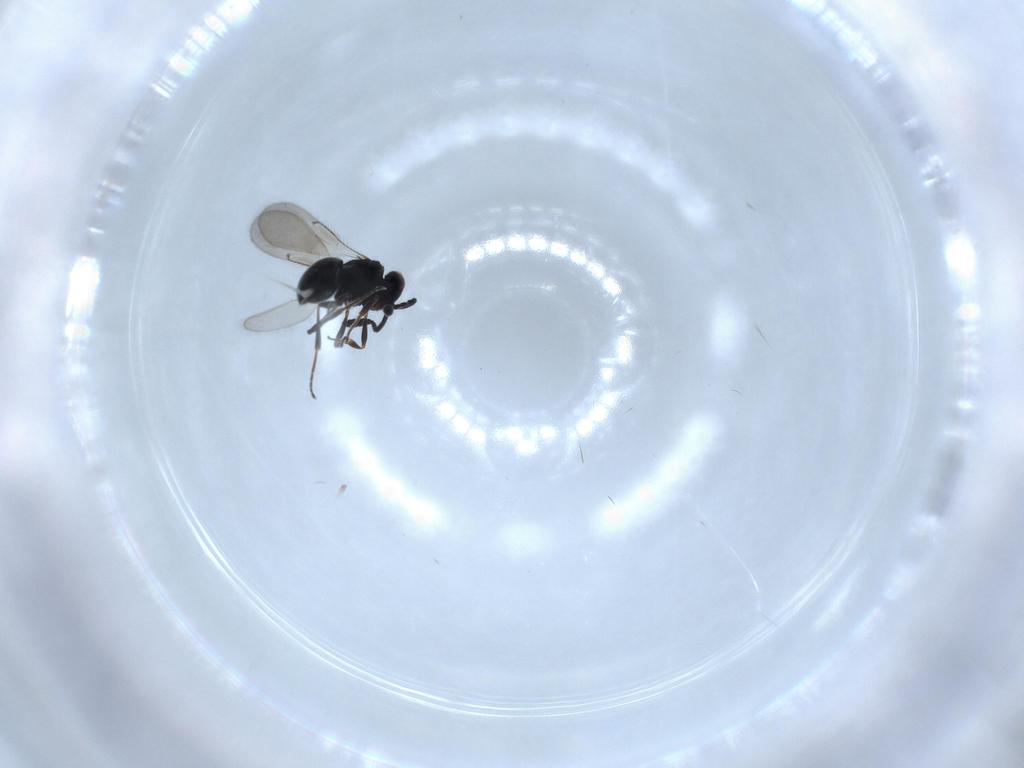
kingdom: Animalia
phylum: Arthropoda
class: Insecta
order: Hymenoptera
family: Scelionidae
